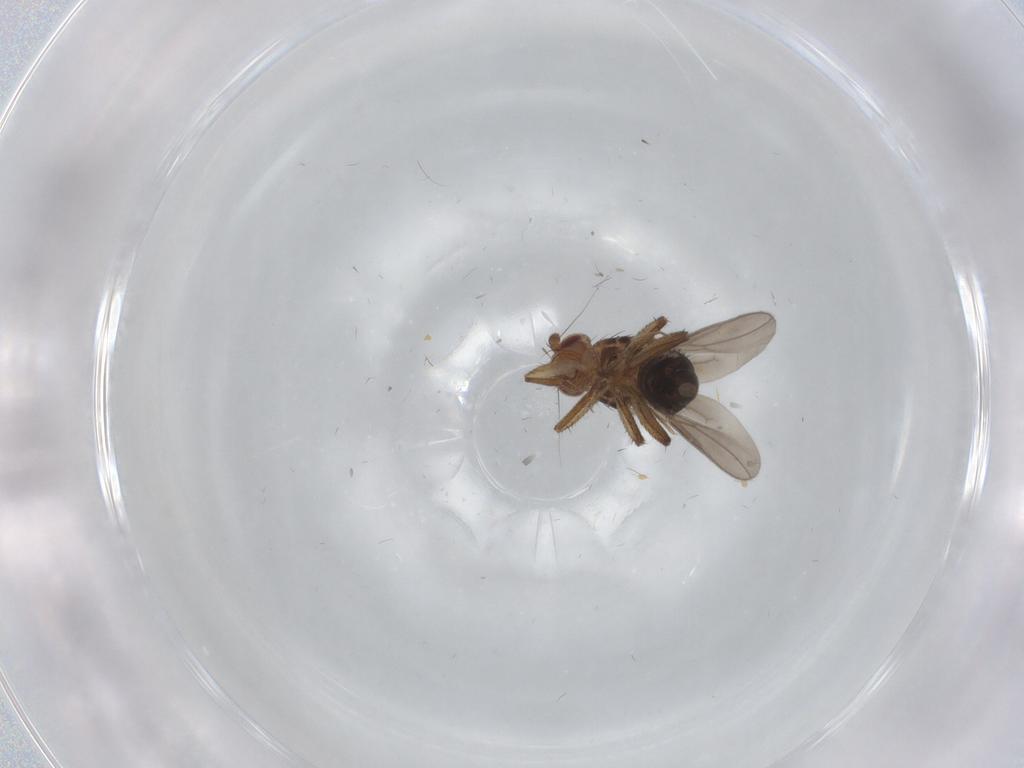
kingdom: Animalia
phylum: Arthropoda
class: Insecta
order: Diptera
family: Sphaeroceridae
